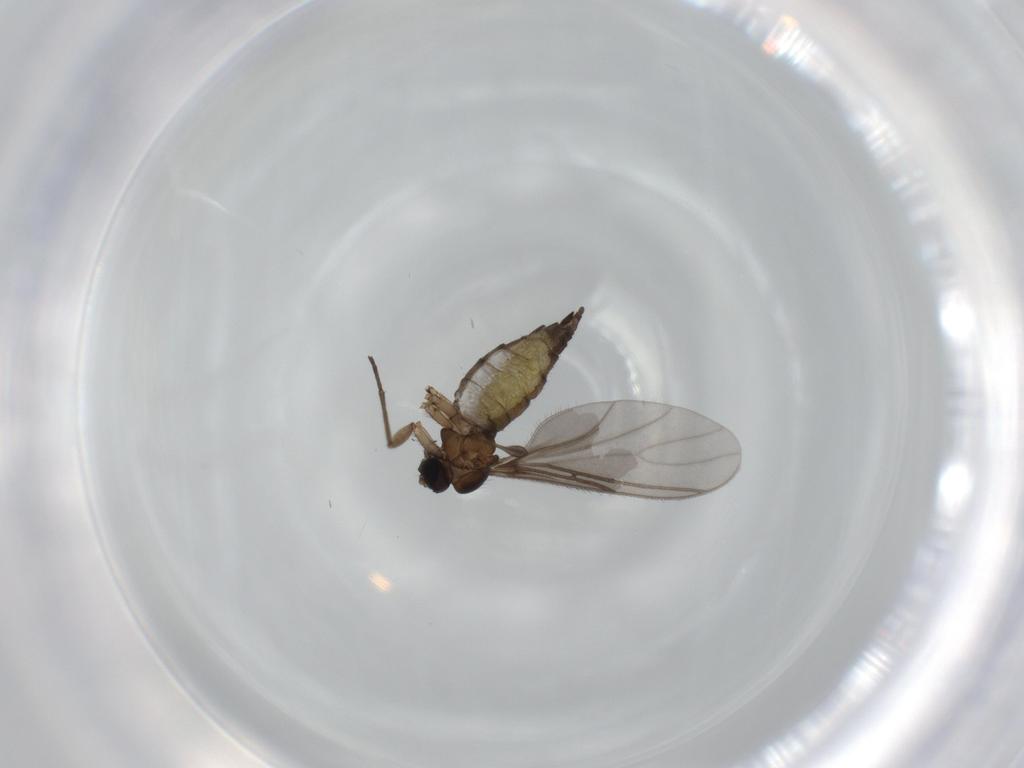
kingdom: Animalia
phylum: Arthropoda
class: Insecta
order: Diptera
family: Sciaridae
